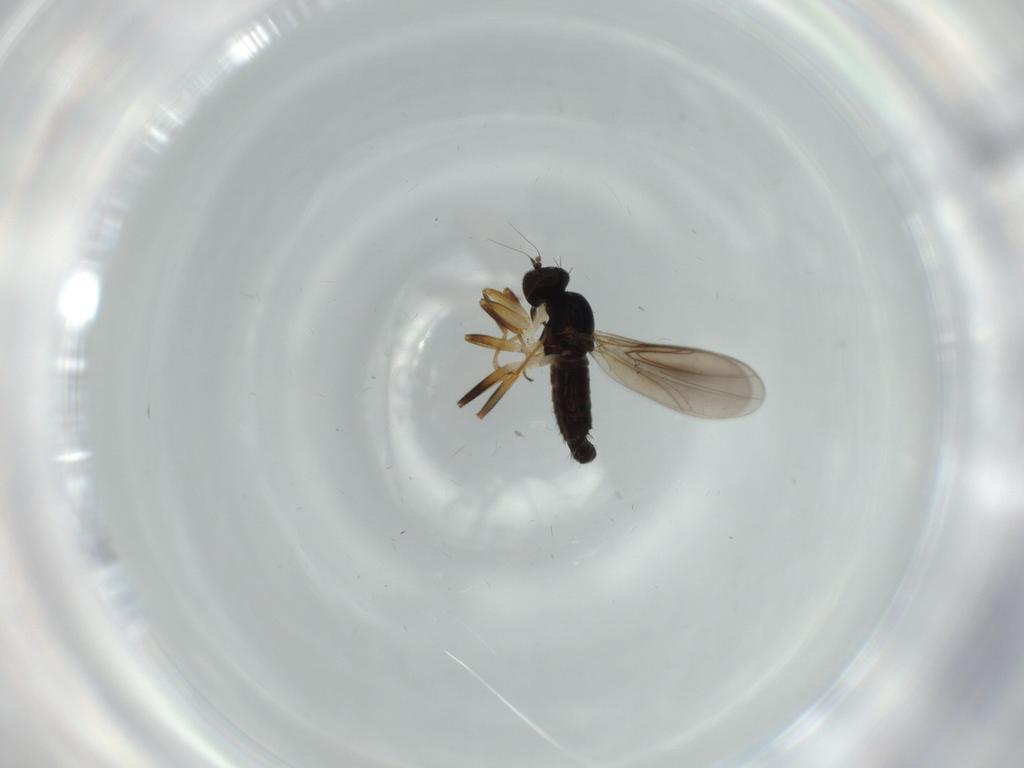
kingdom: Animalia
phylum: Arthropoda
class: Insecta
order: Diptera
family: Hybotidae
